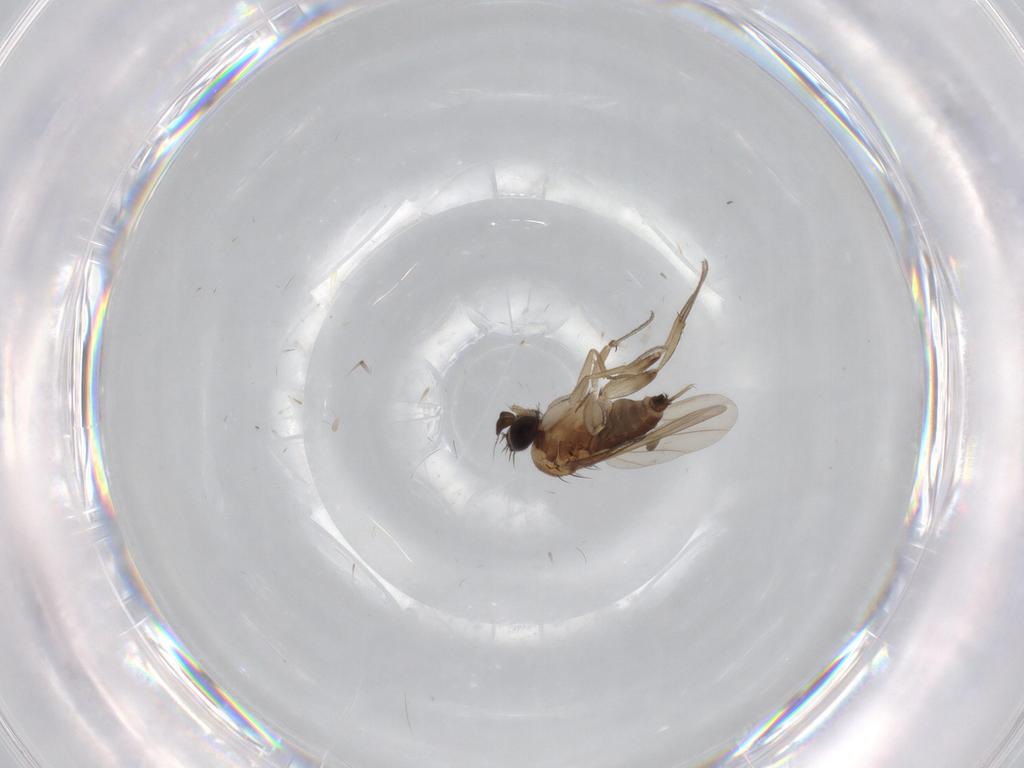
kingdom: Animalia
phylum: Arthropoda
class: Insecta
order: Diptera
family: Phoridae
